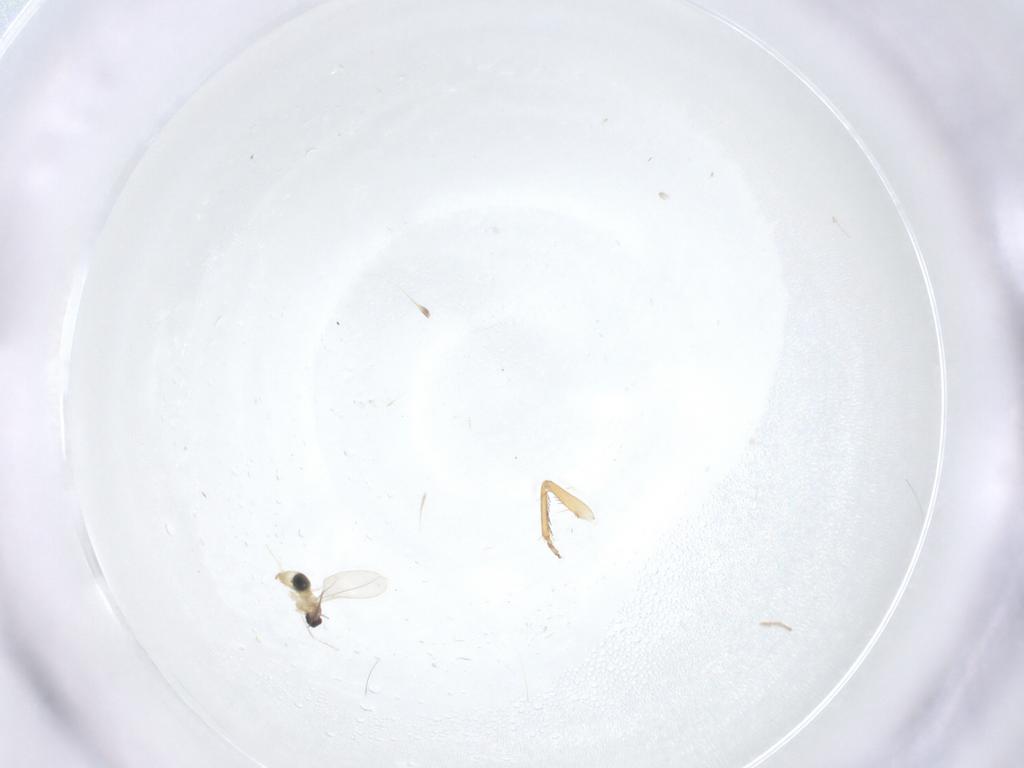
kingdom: Animalia
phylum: Arthropoda
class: Insecta
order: Diptera
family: Cecidomyiidae
